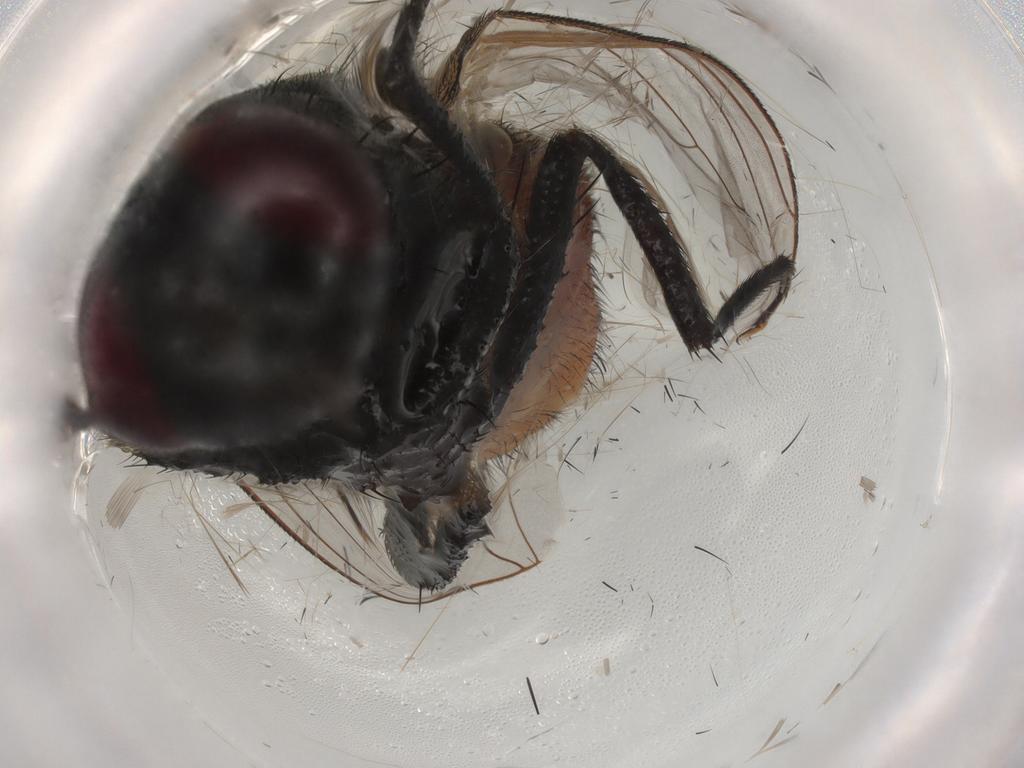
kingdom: Animalia
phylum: Arthropoda
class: Insecta
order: Diptera
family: Muscidae
